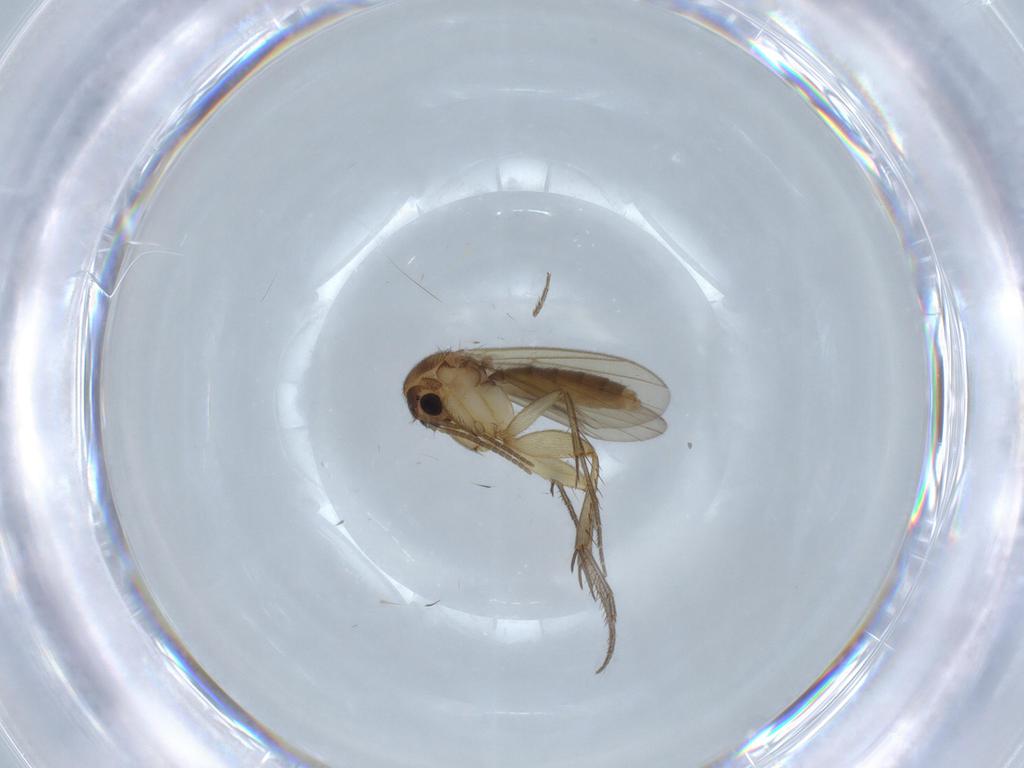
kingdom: Animalia
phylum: Arthropoda
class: Insecta
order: Diptera
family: Mycetophilidae
